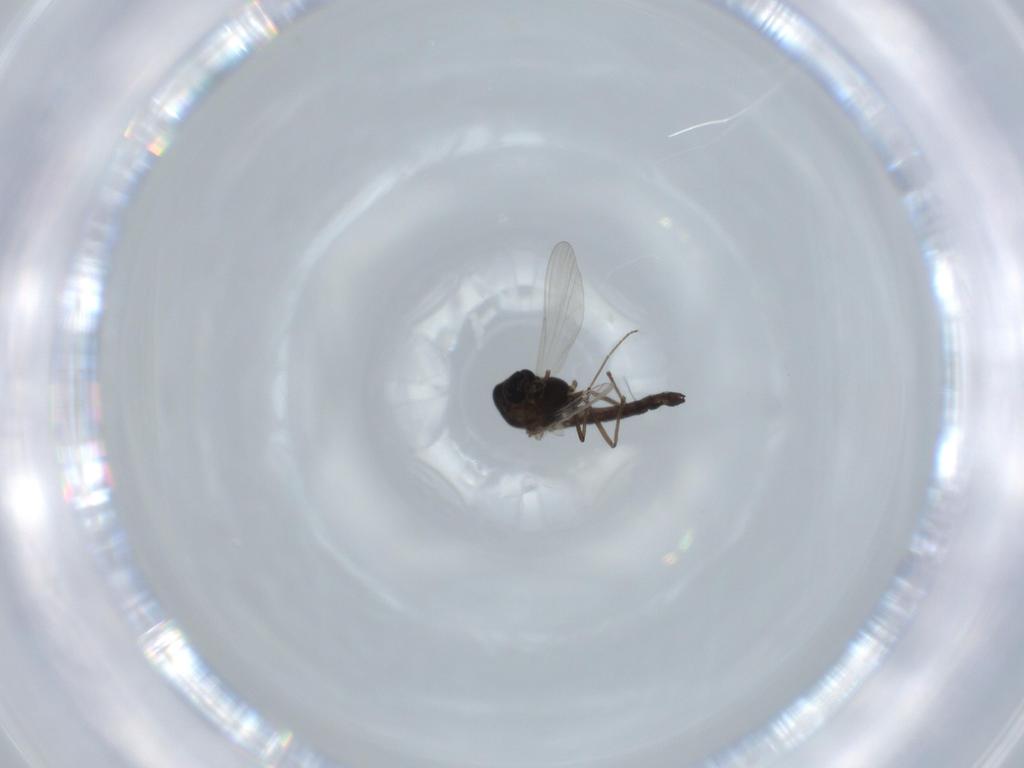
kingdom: Animalia
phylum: Arthropoda
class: Insecta
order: Diptera
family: Chironomidae
